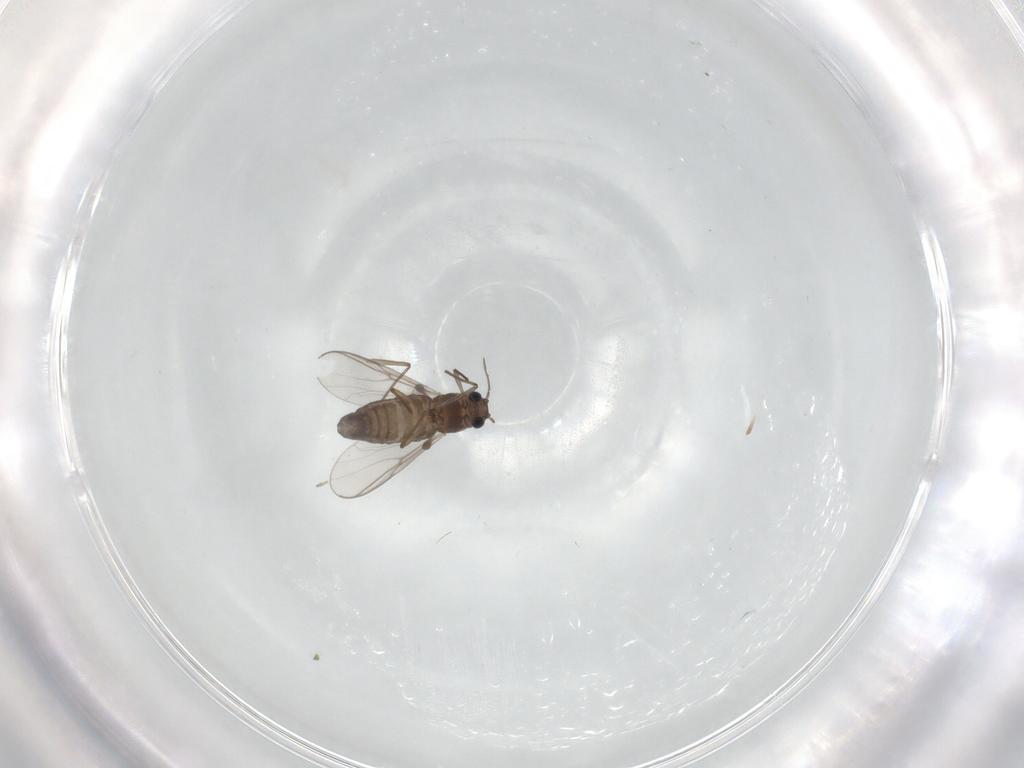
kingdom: Animalia
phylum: Arthropoda
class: Insecta
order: Diptera
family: Chironomidae
